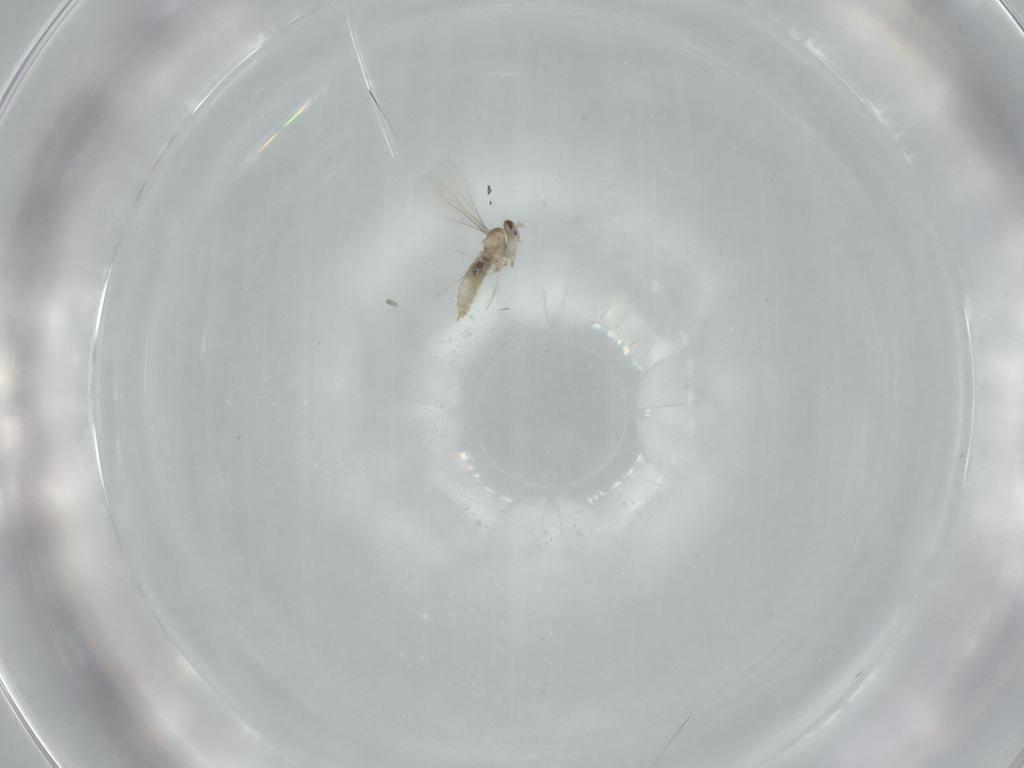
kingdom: Animalia
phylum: Arthropoda
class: Insecta
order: Diptera
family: Cecidomyiidae
